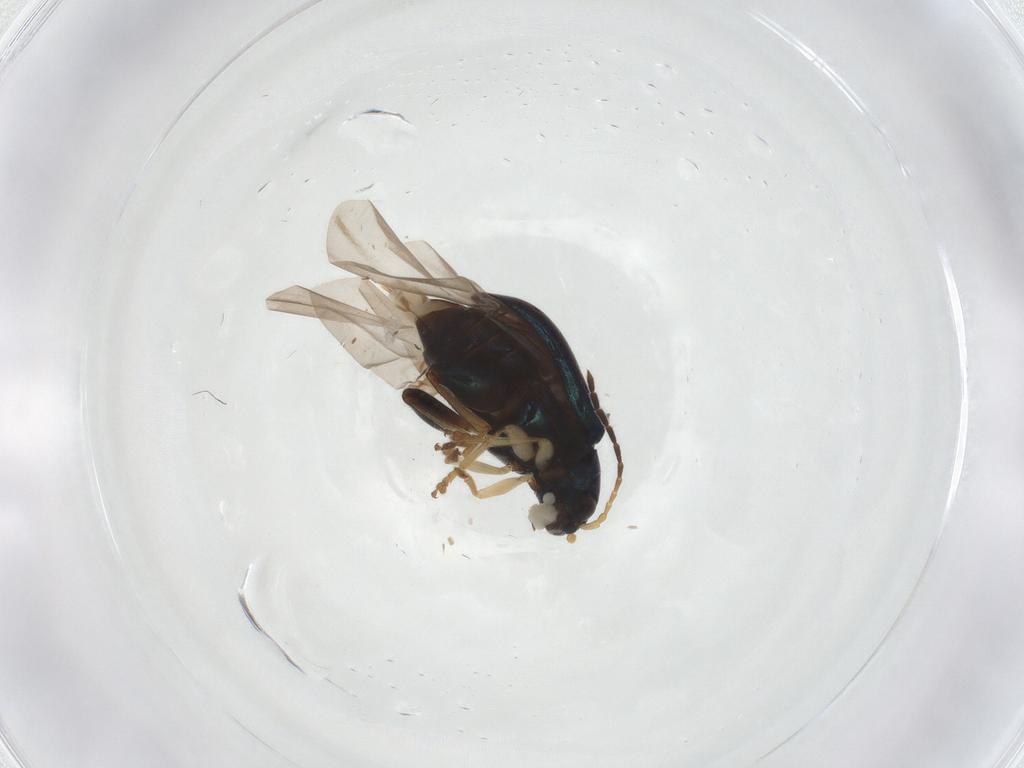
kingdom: Animalia
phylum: Arthropoda
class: Insecta
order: Coleoptera
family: Chrysomelidae
